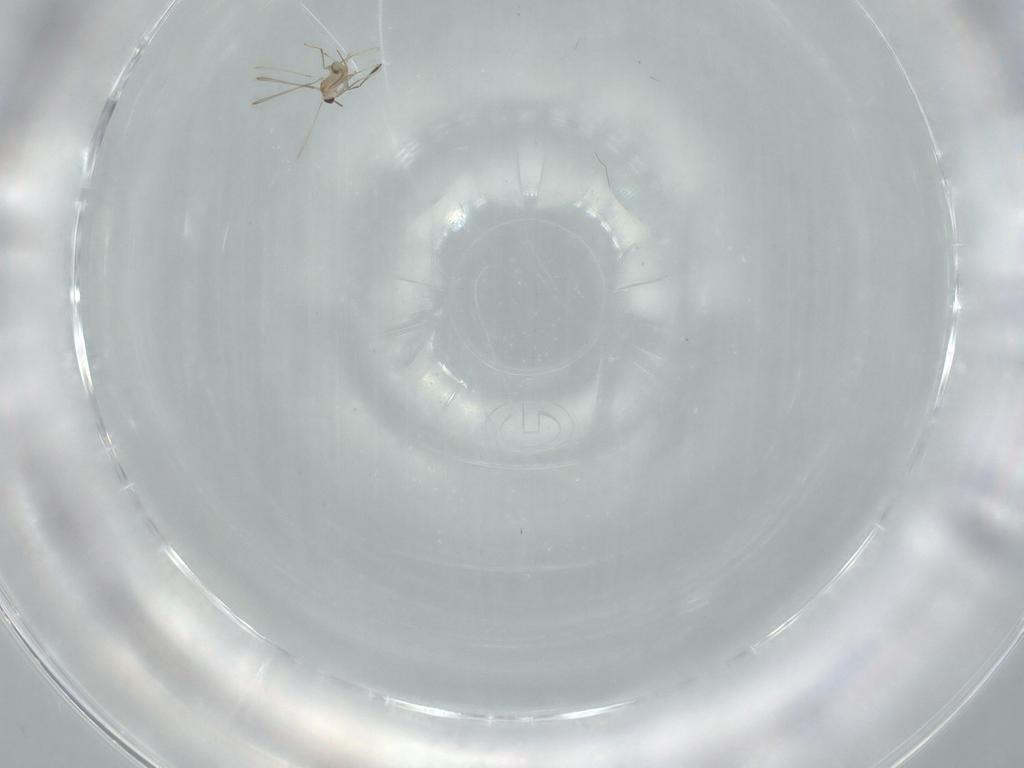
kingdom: Animalia
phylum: Arthropoda
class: Insecta
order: Hymenoptera
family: Mymaridae
